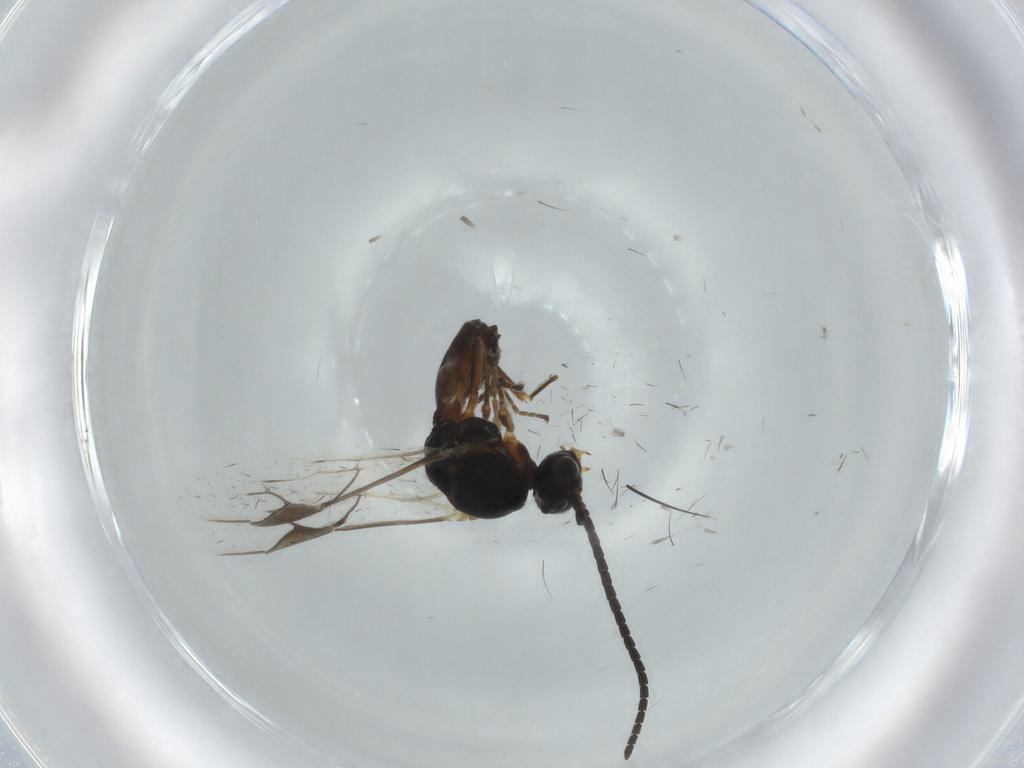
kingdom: Animalia
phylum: Arthropoda
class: Insecta
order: Hymenoptera
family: Braconidae
